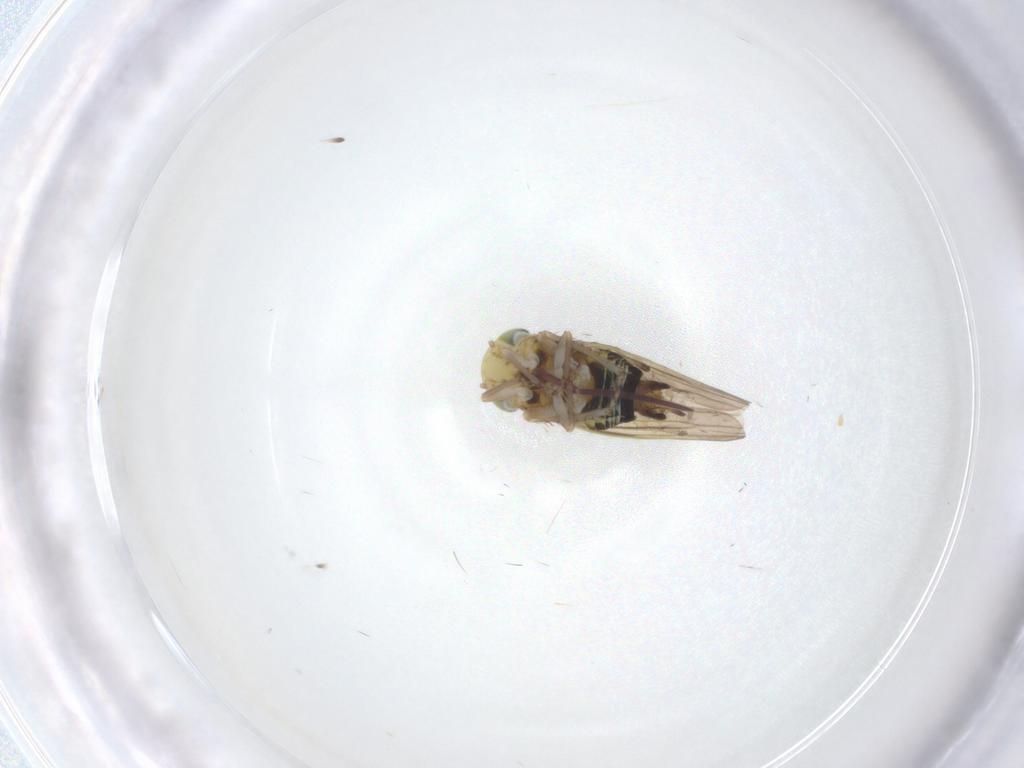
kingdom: Animalia
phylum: Arthropoda
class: Insecta
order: Hemiptera
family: Cicadellidae
